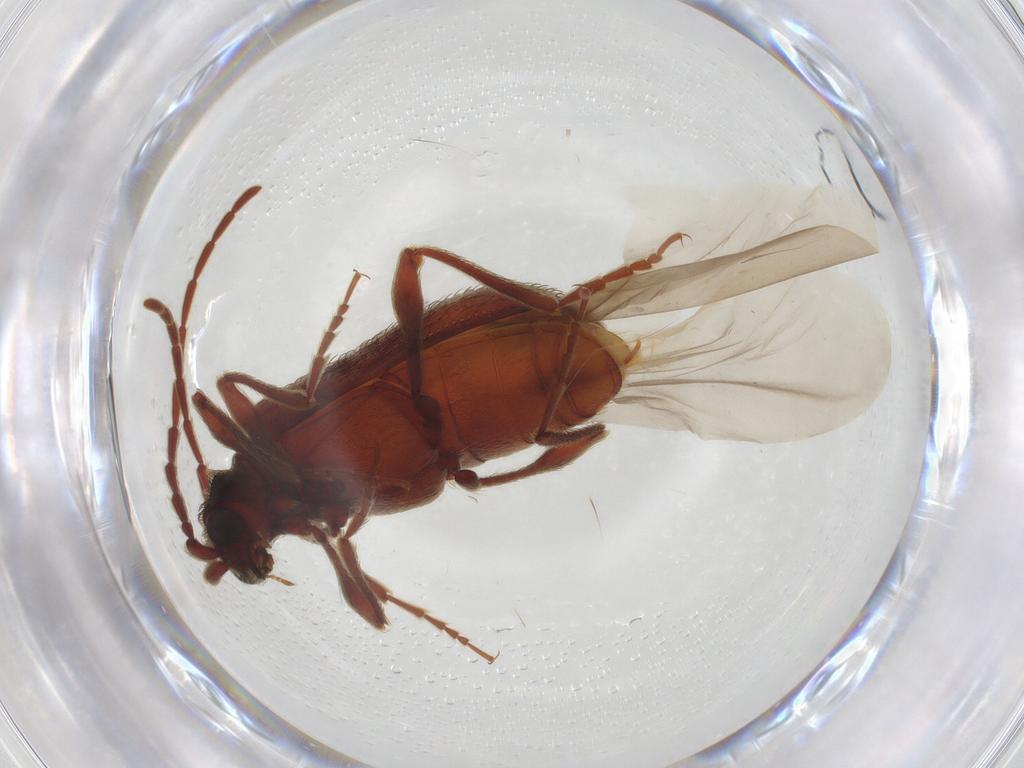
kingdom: Animalia
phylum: Arthropoda
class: Insecta
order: Coleoptera
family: Ptinidae
